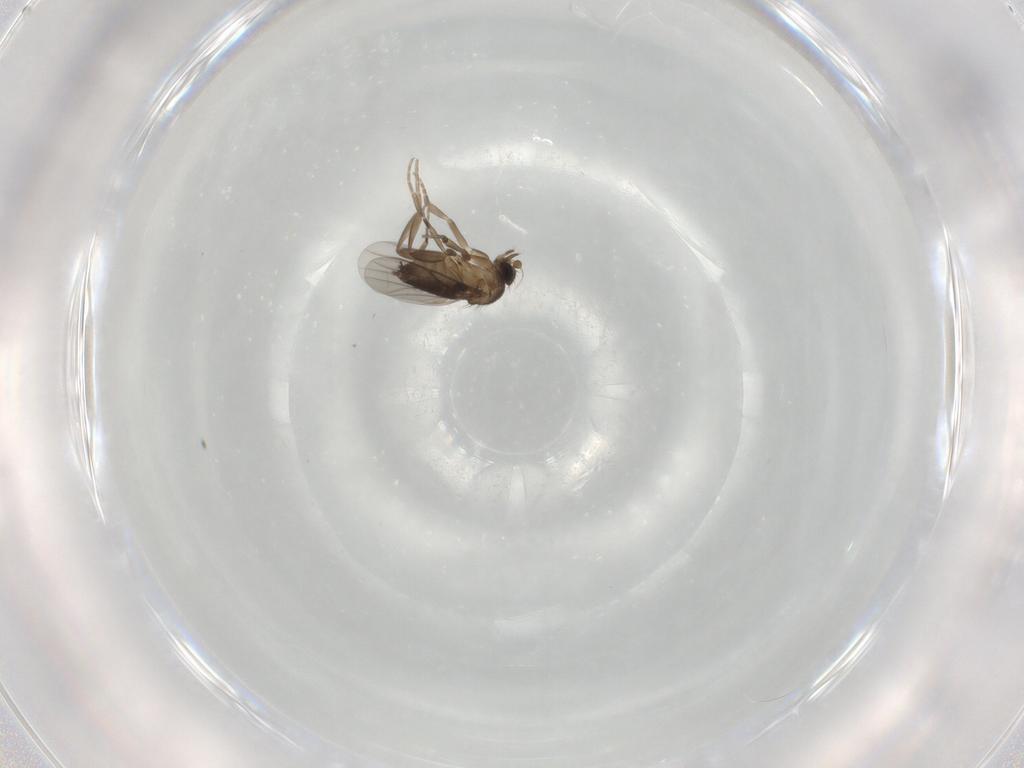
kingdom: Animalia
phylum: Arthropoda
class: Insecta
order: Diptera
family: Phoridae
